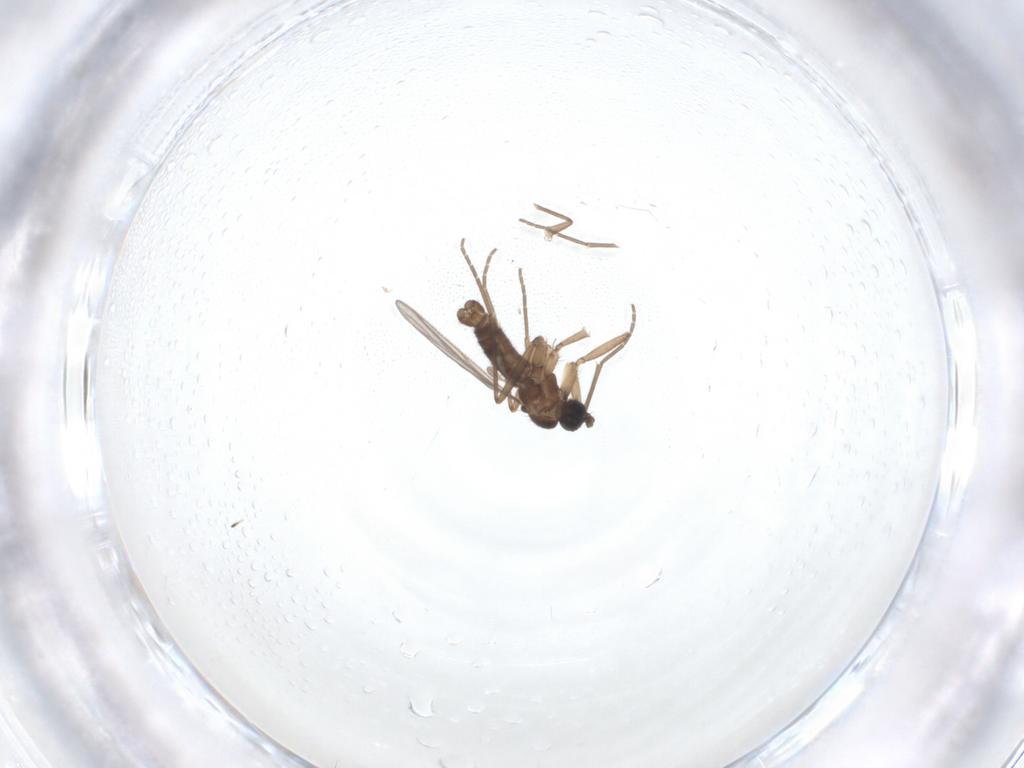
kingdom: Animalia
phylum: Arthropoda
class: Insecta
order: Diptera
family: Sciaridae
